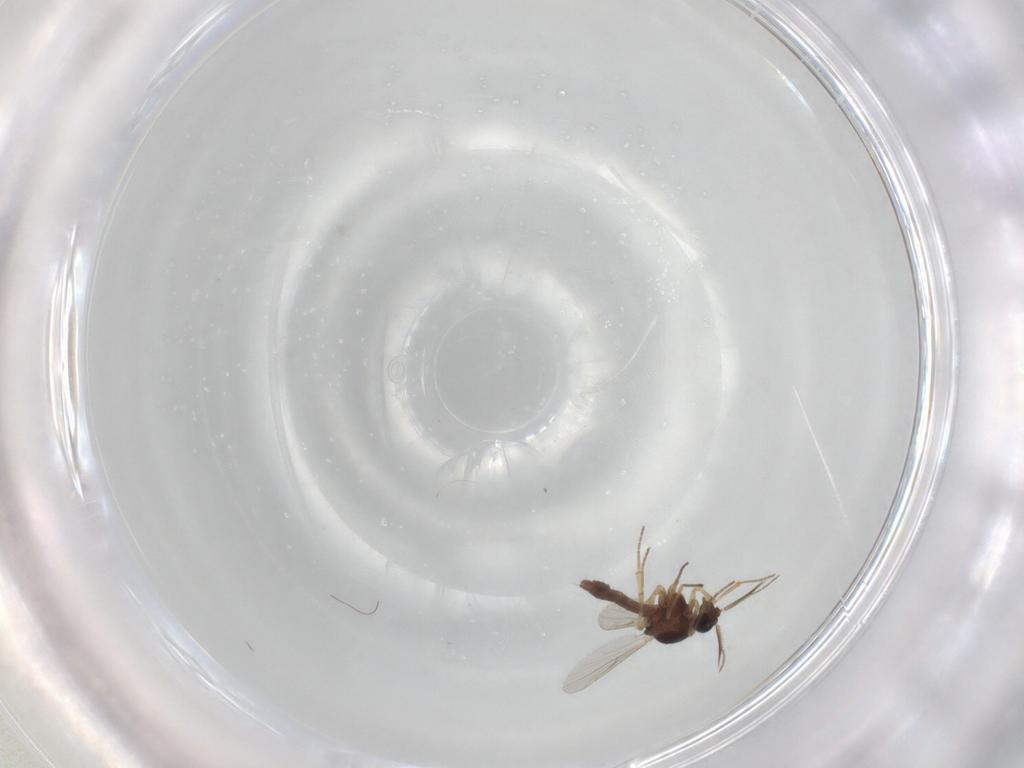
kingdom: Animalia
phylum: Arthropoda
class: Insecta
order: Diptera
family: Ceratopogonidae
